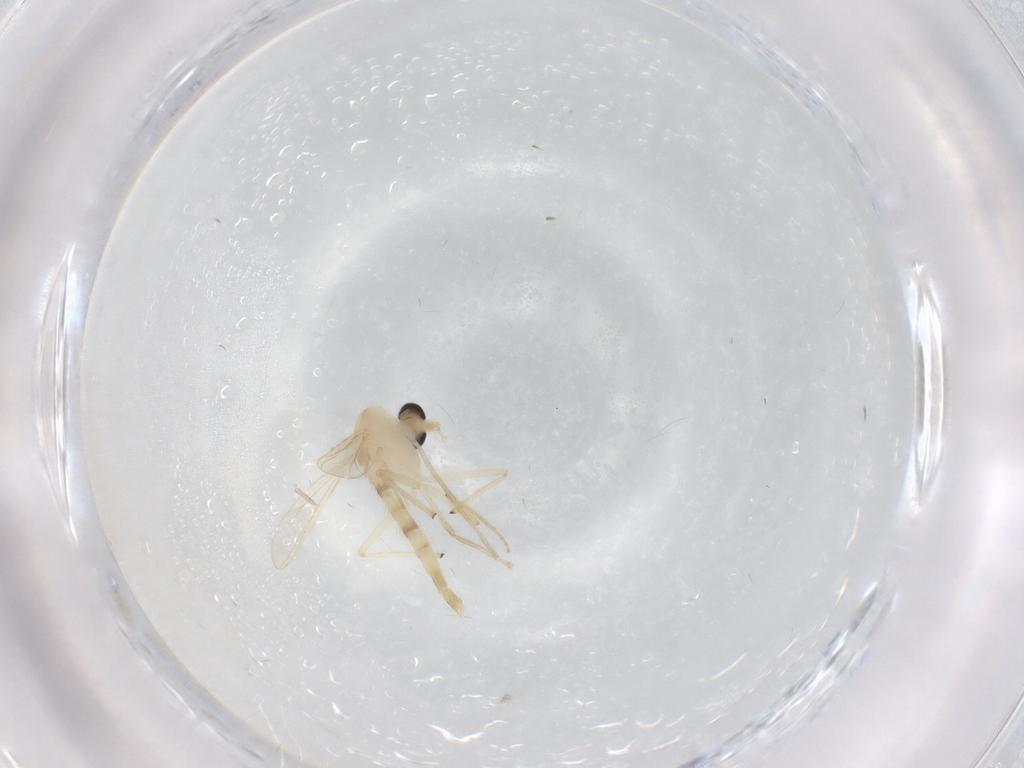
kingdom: Animalia
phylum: Arthropoda
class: Insecta
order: Diptera
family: Chironomidae
